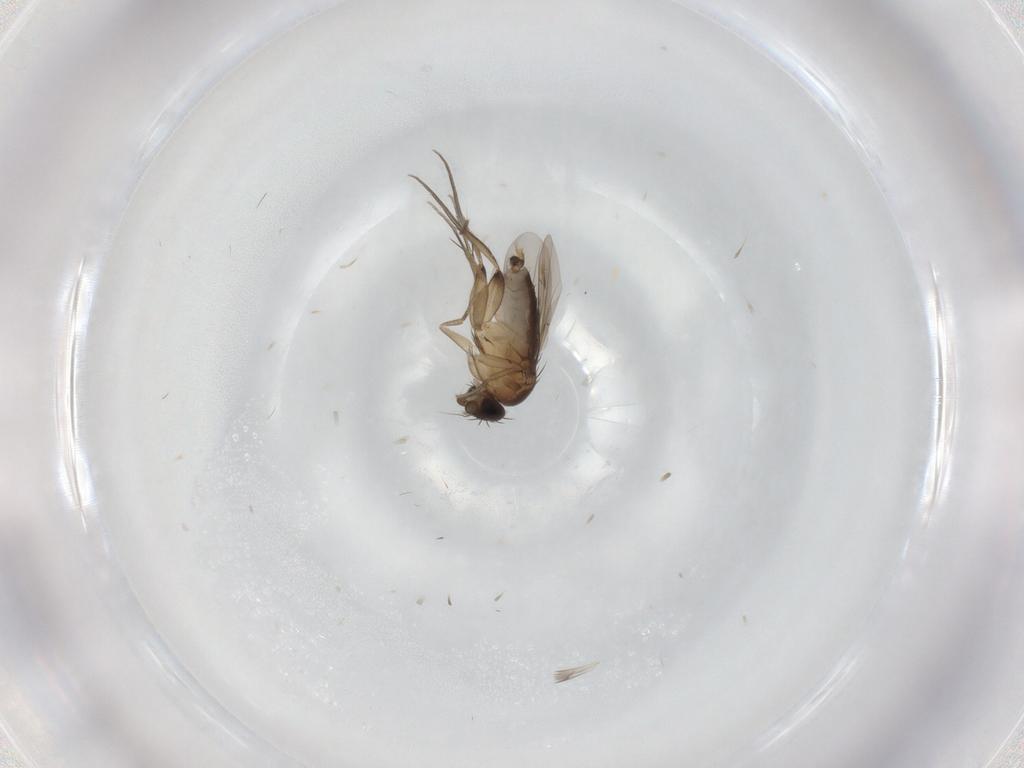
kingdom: Animalia
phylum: Arthropoda
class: Insecta
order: Diptera
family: Phoridae
